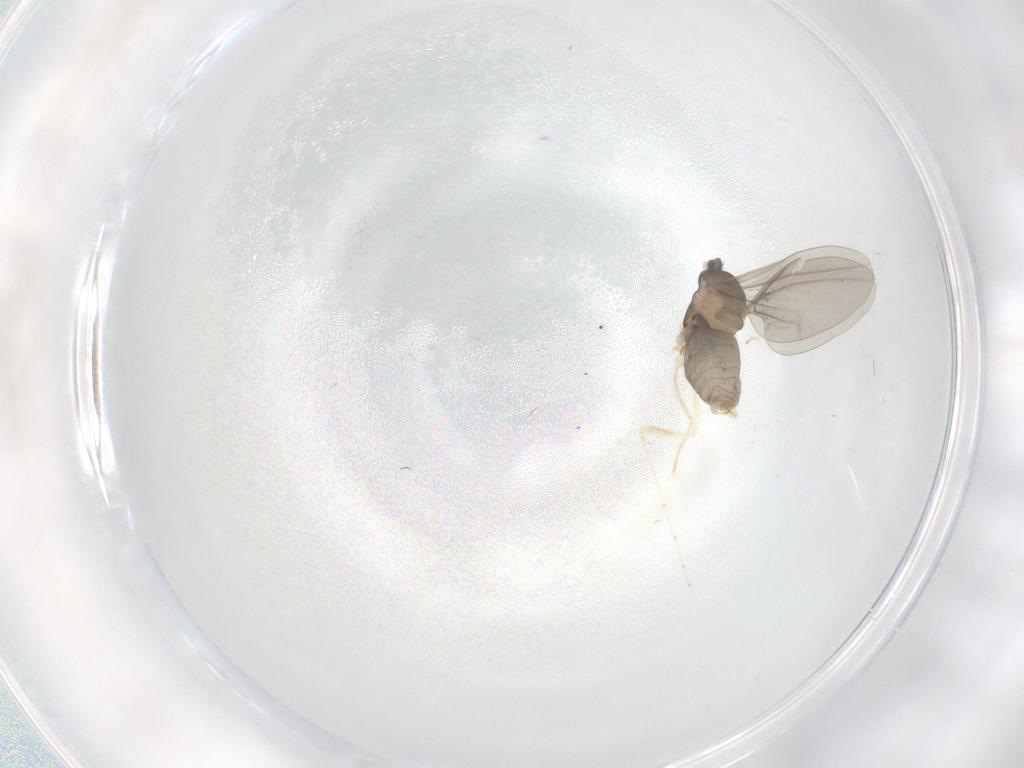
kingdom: Animalia
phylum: Arthropoda
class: Insecta
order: Diptera
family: Cecidomyiidae
